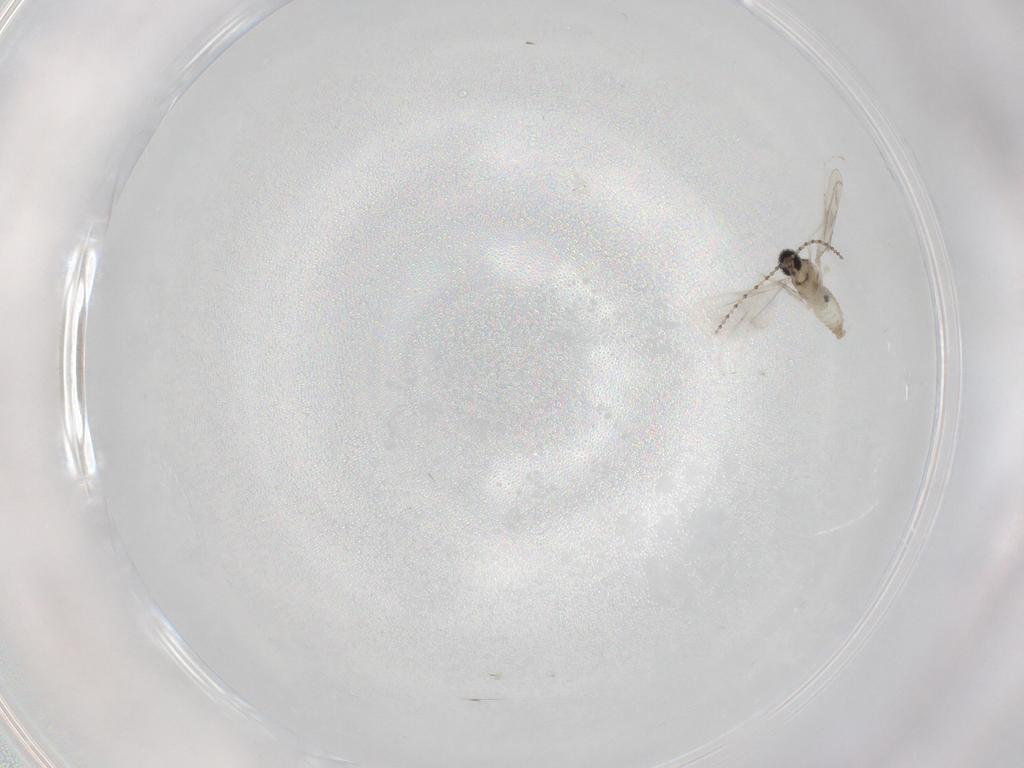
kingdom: Animalia
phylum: Arthropoda
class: Insecta
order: Diptera
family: Cecidomyiidae
